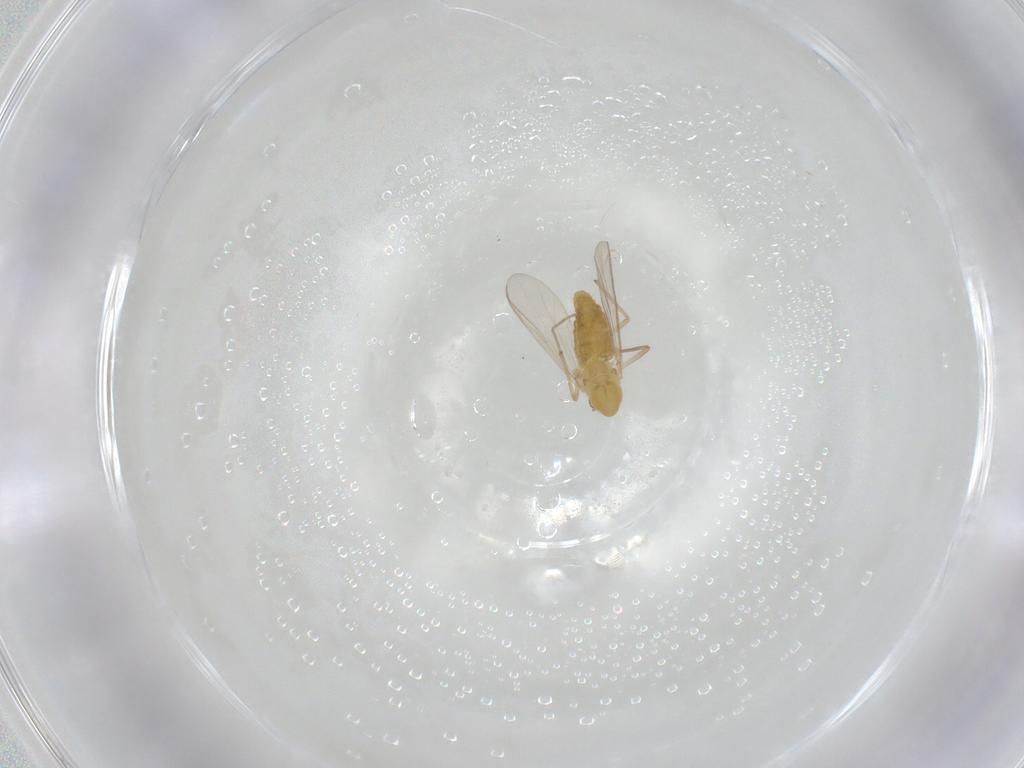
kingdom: Animalia
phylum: Arthropoda
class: Insecta
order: Diptera
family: Chironomidae
